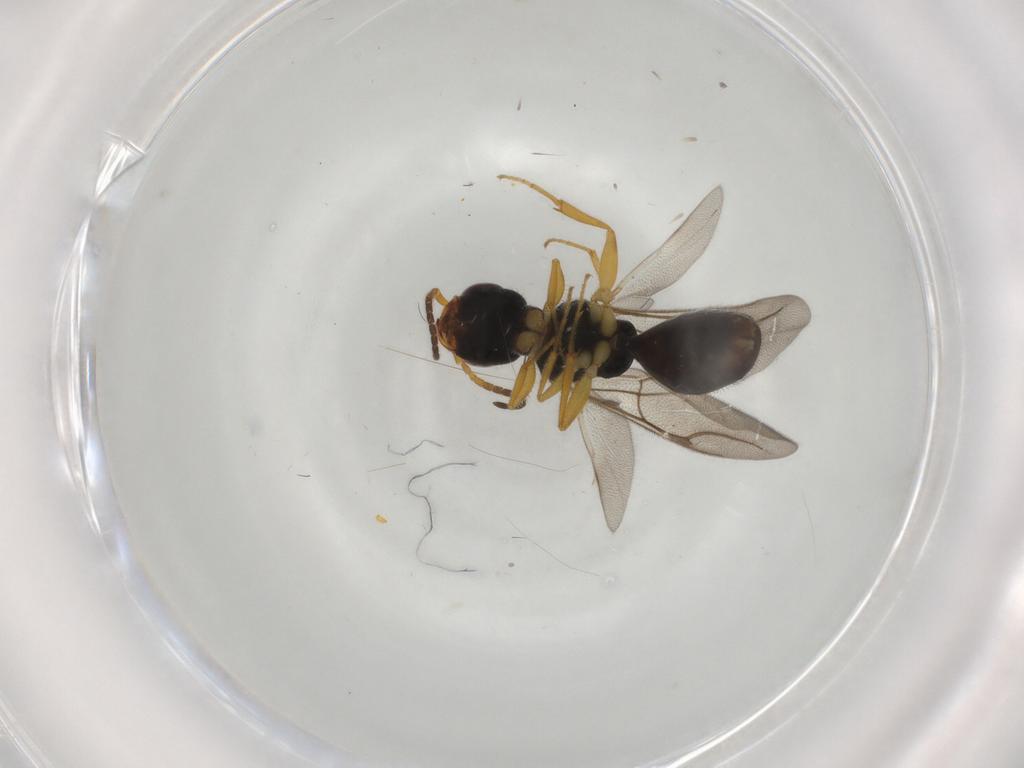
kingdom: Animalia
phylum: Arthropoda
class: Insecta
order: Hymenoptera
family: Bethylidae
